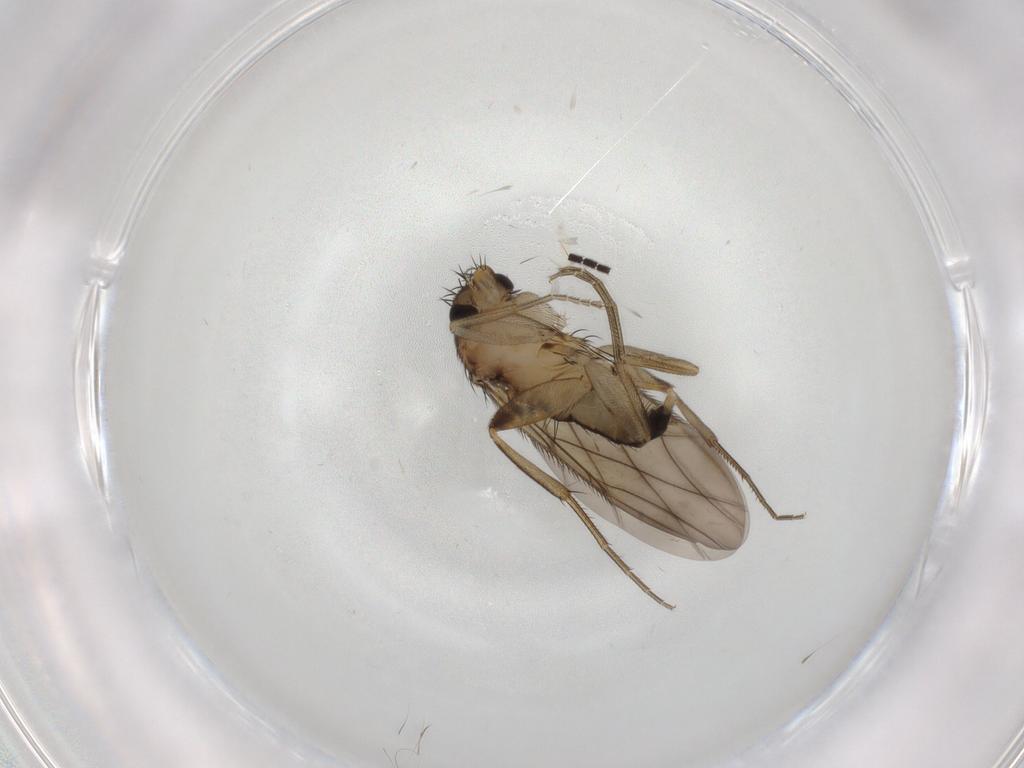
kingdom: Animalia
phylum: Arthropoda
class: Insecta
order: Diptera
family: Phoridae
